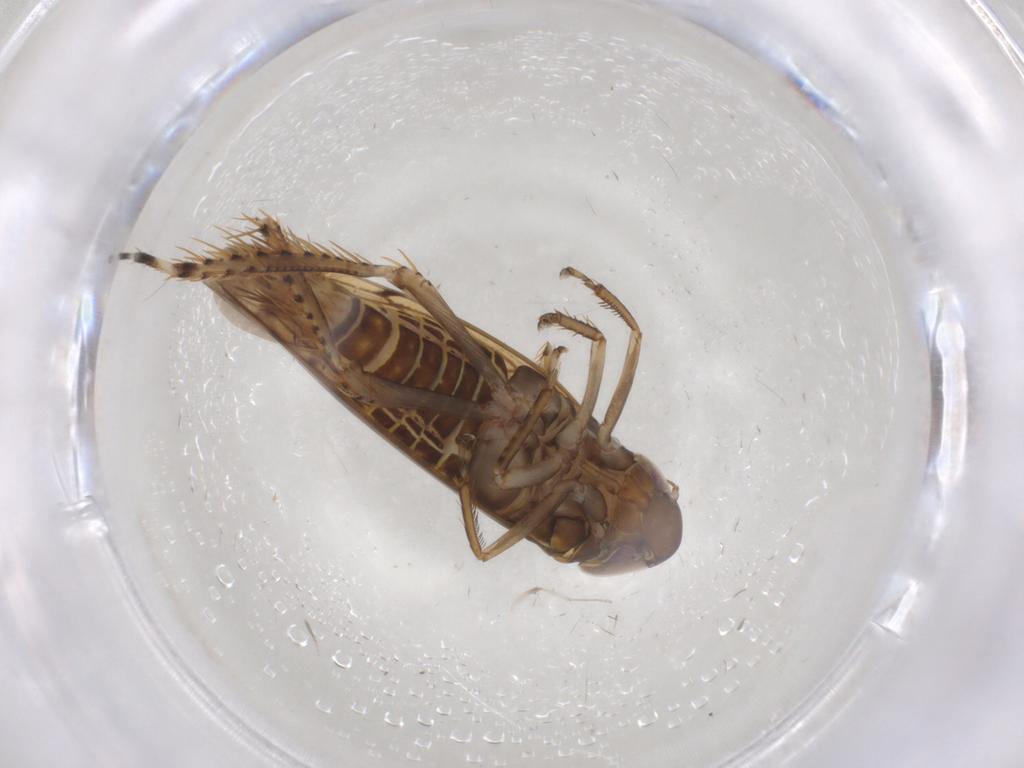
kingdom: Animalia
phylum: Arthropoda
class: Insecta
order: Hemiptera
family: Cicadellidae
